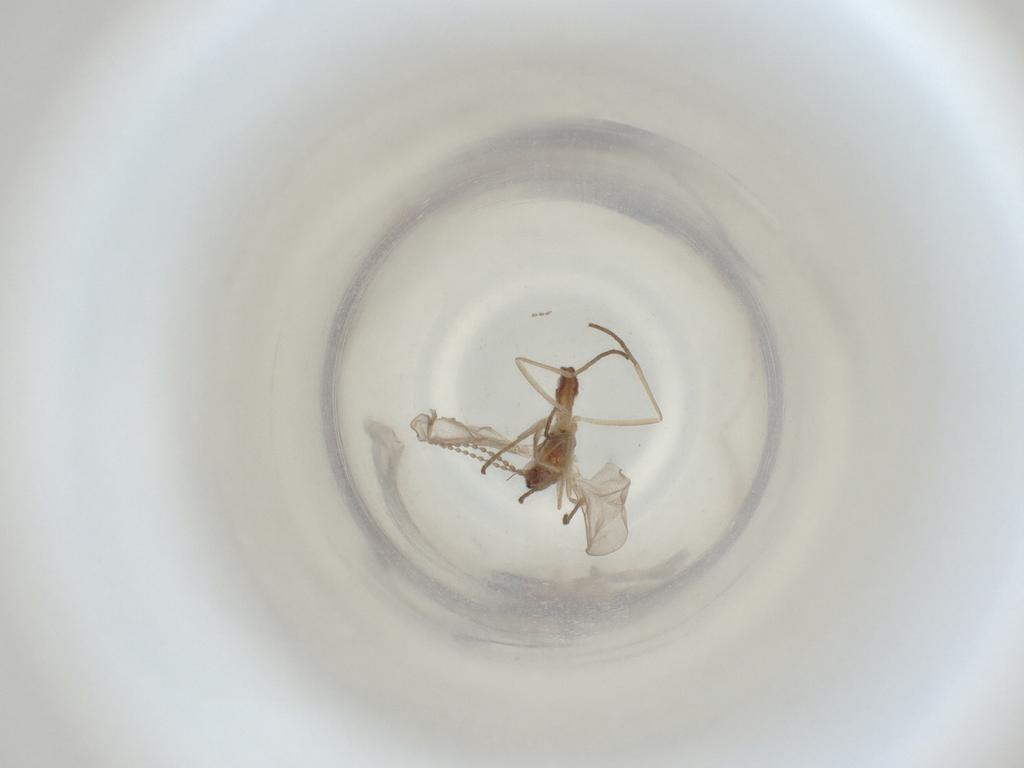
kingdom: Animalia
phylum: Arthropoda
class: Insecta
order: Diptera
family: Cecidomyiidae
